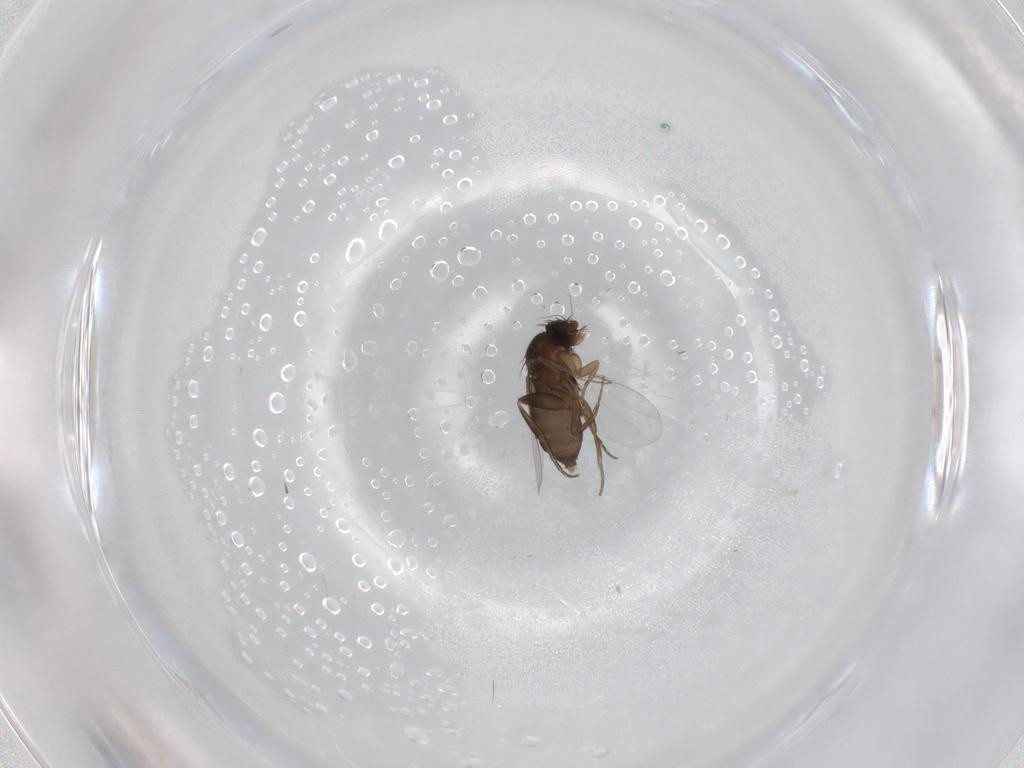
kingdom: Animalia
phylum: Arthropoda
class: Insecta
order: Diptera
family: Phoridae
